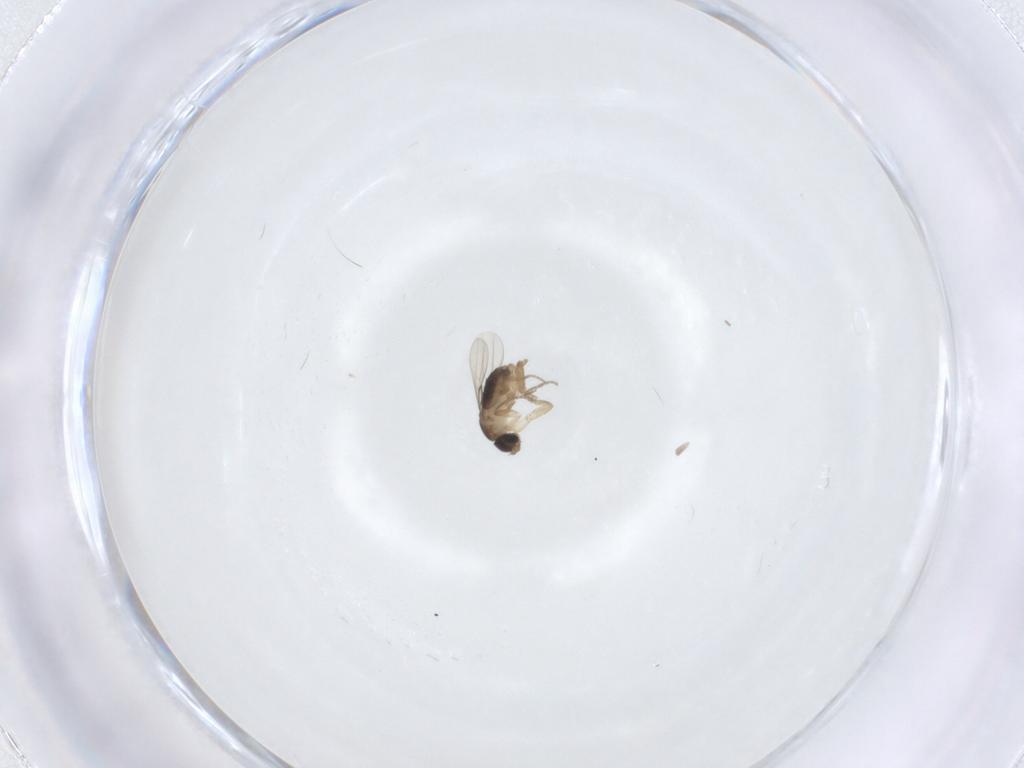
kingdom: Animalia
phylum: Arthropoda
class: Insecta
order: Diptera
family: Phoridae
